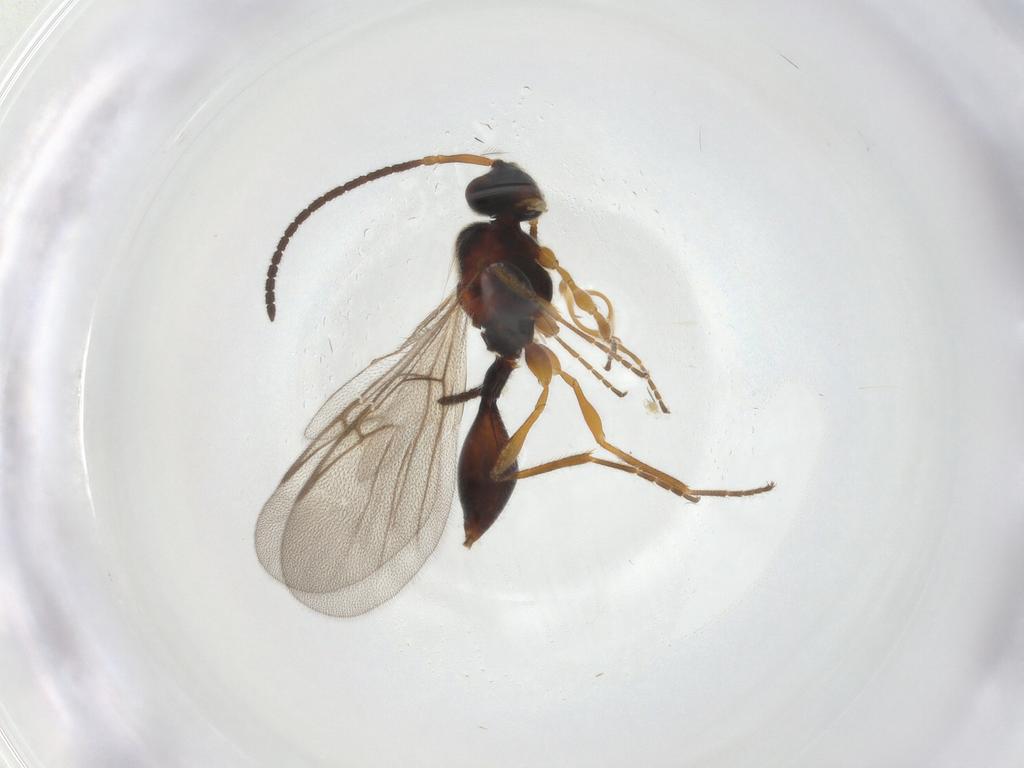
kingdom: Animalia
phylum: Arthropoda
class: Insecta
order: Hymenoptera
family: Diapriidae
